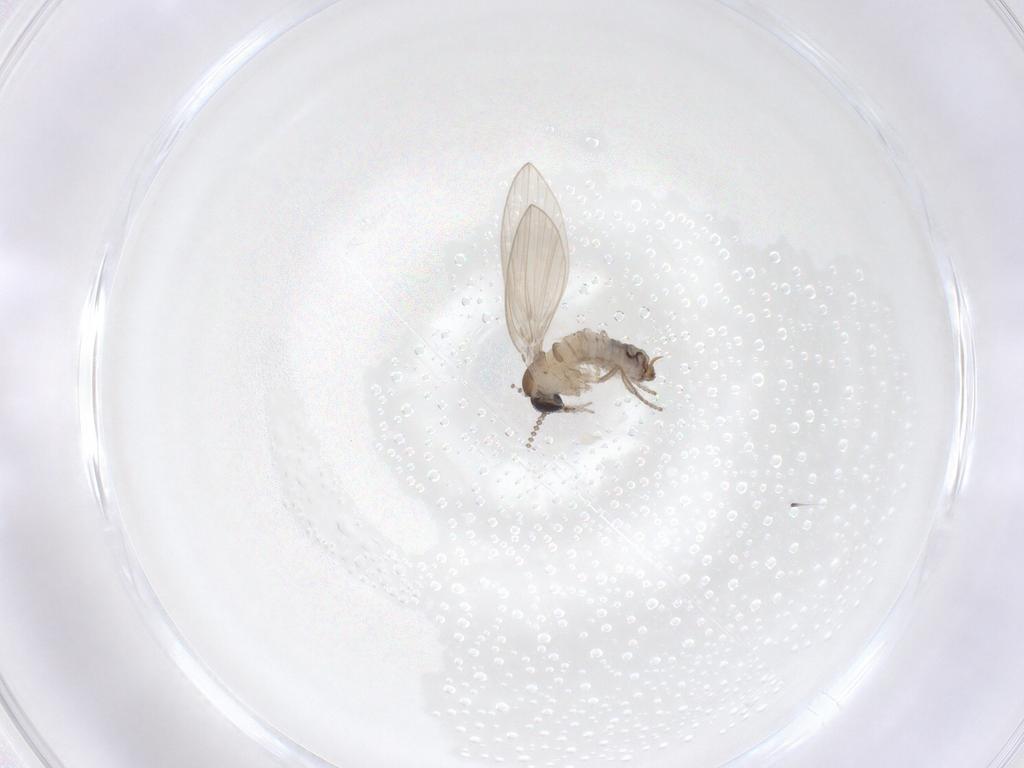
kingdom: Animalia
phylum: Arthropoda
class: Insecta
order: Diptera
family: Psychodidae
